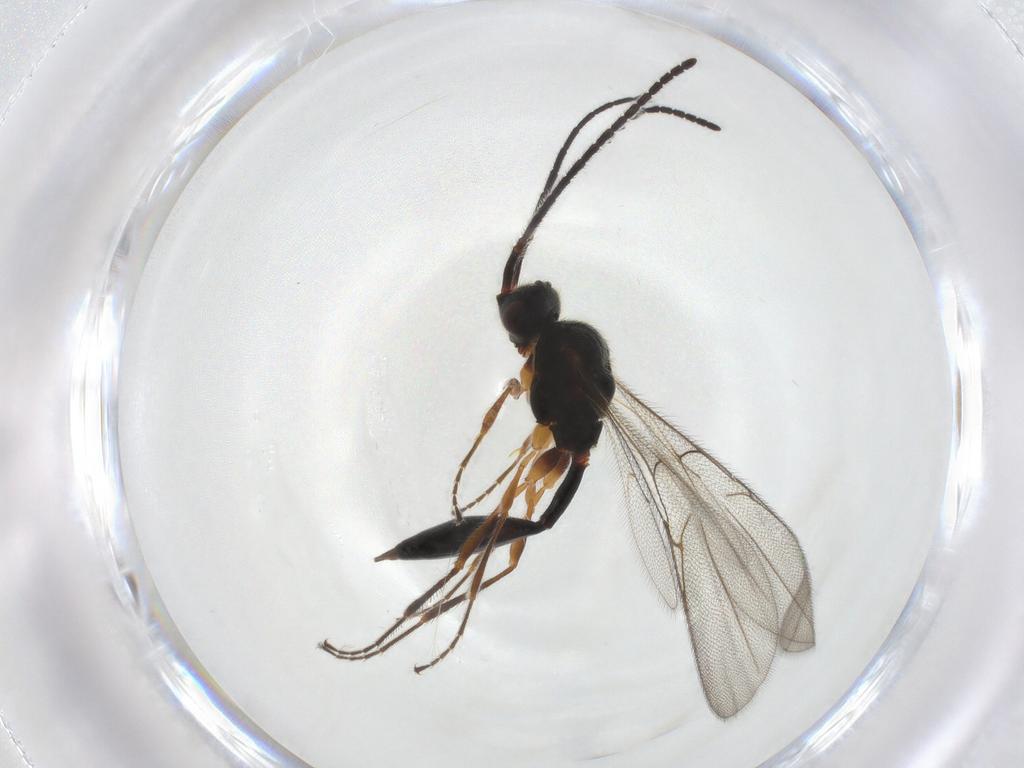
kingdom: Animalia
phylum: Arthropoda
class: Insecta
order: Hymenoptera
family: Diapriidae
